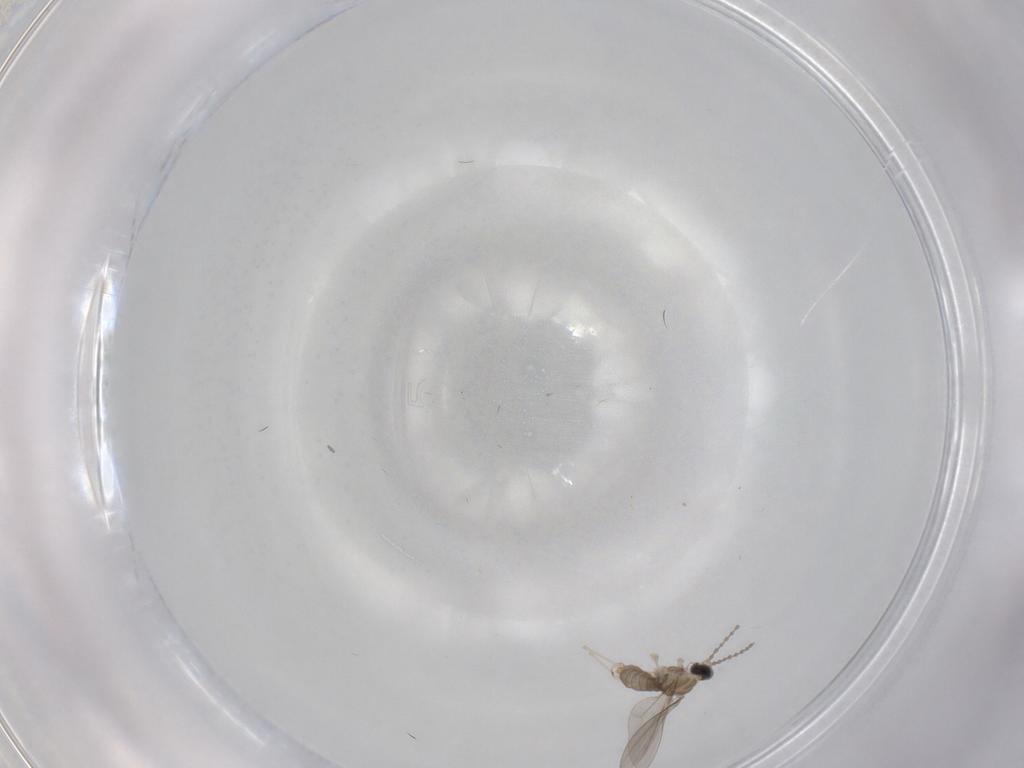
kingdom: Animalia
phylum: Arthropoda
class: Insecta
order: Diptera
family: Cecidomyiidae
